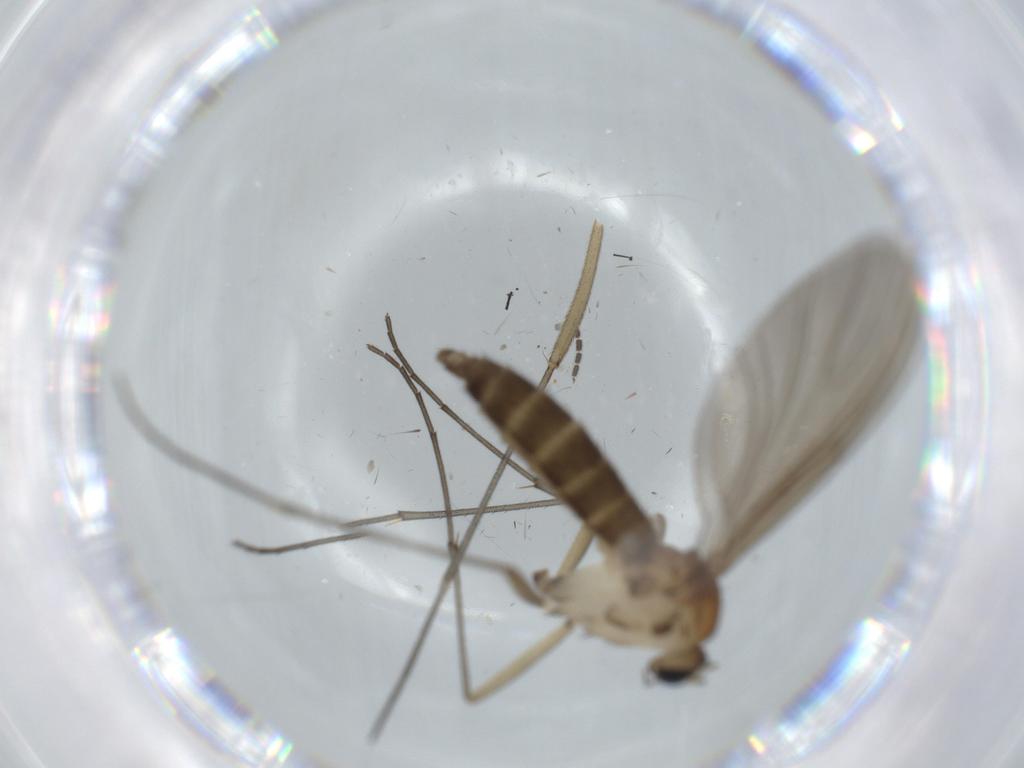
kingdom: Animalia
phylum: Arthropoda
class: Insecta
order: Diptera
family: Sciaridae
